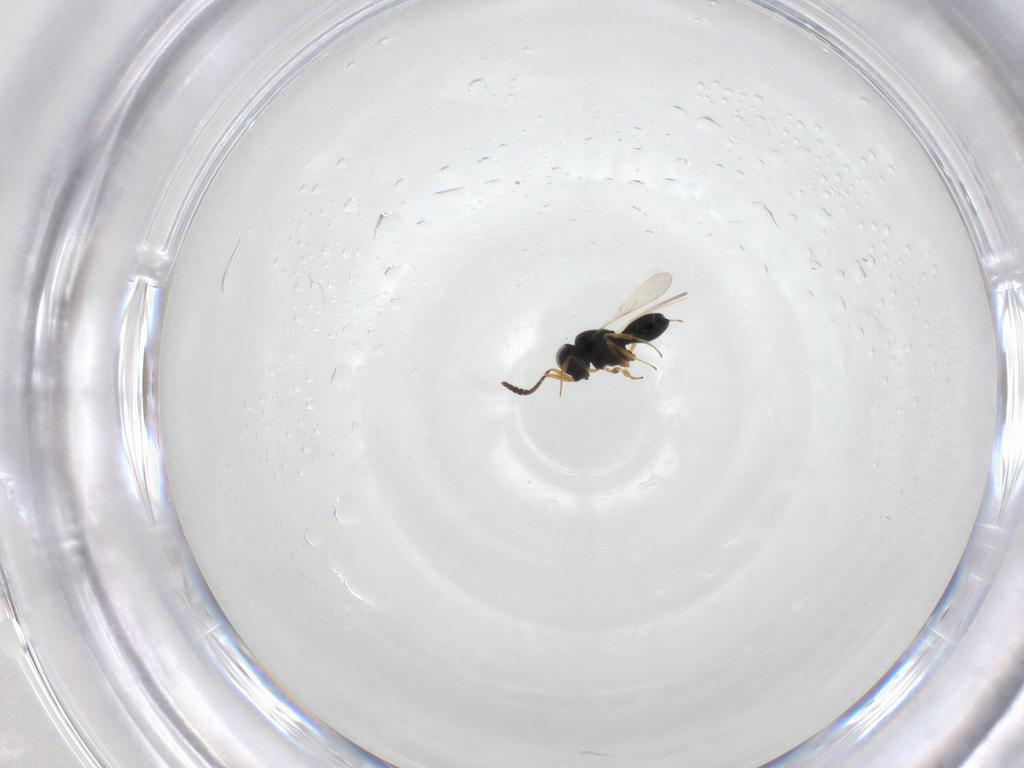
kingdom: Animalia
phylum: Arthropoda
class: Insecta
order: Hymenoptera
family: Scelionidae
